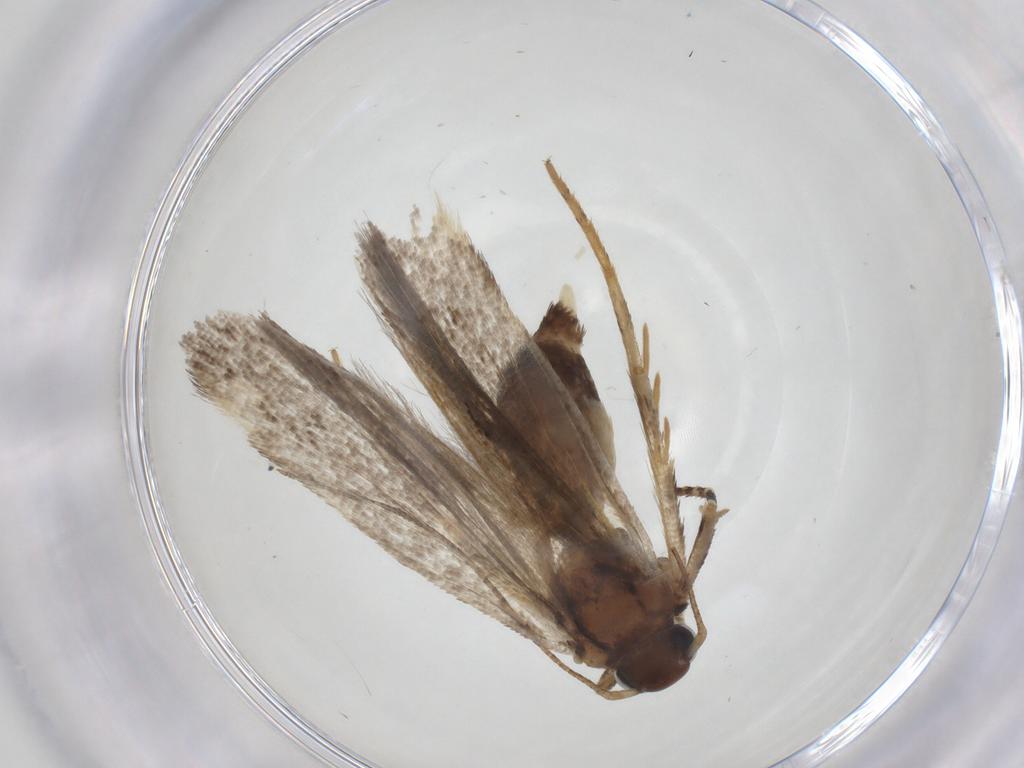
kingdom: Animalia
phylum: Arthropoda
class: Insecta
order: Lepidoptera
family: Gelechiidae
